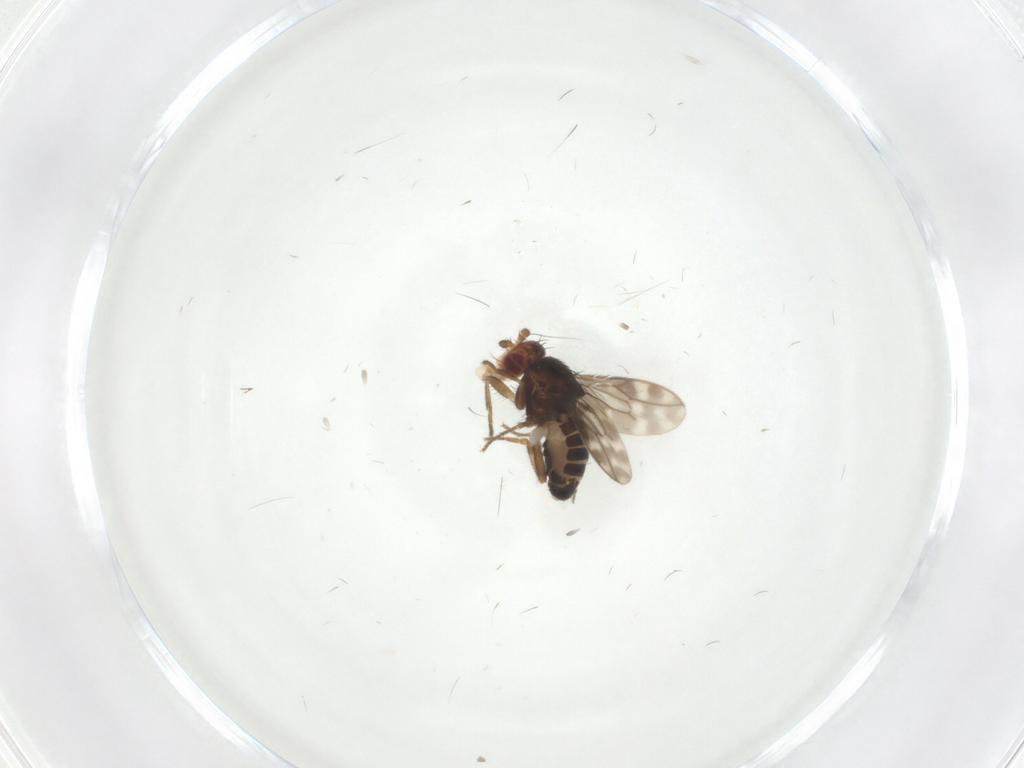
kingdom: Animalia
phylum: Arthropoda
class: Insecta
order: Diptera
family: Sphaeroceridae
